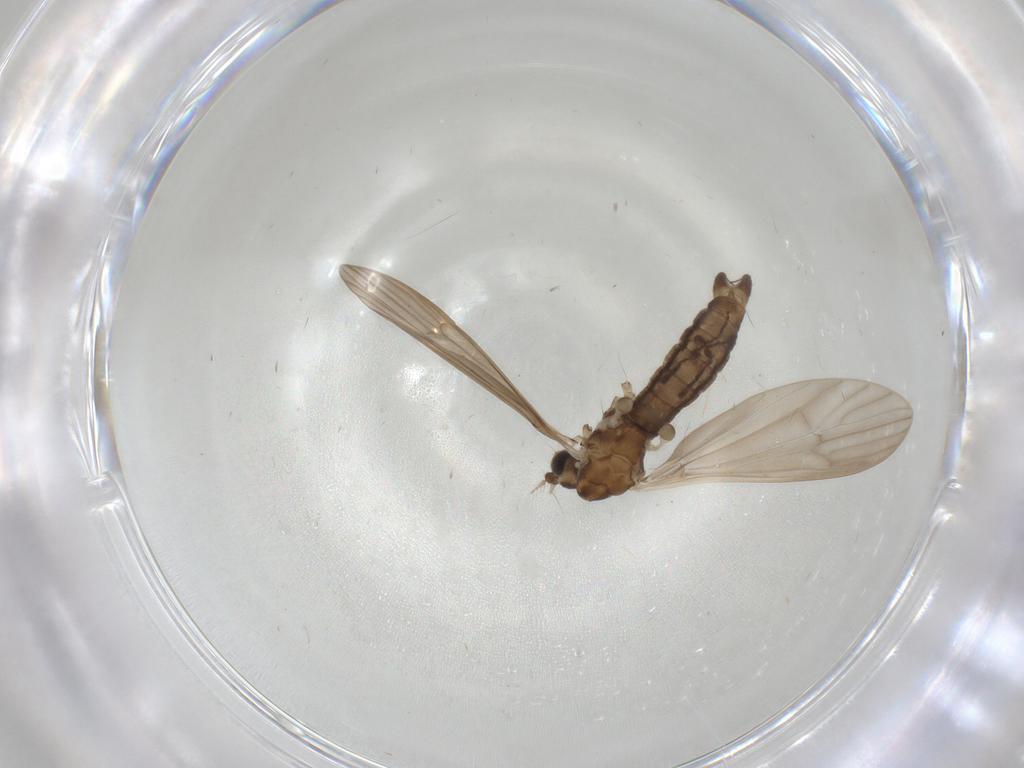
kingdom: Animalia
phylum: Arthropoda
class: Insecta
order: Diptera
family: Limoniidae
